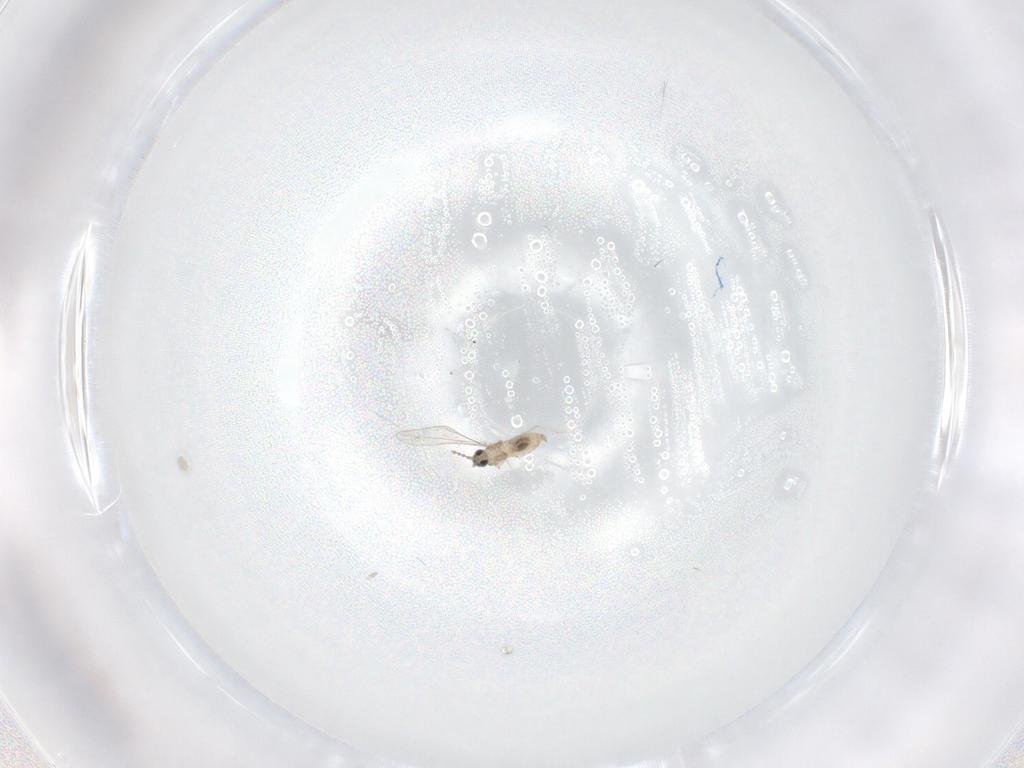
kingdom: Animalia
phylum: Arthropoda
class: Insecta
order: Diptera
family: Cecidomyiidae
